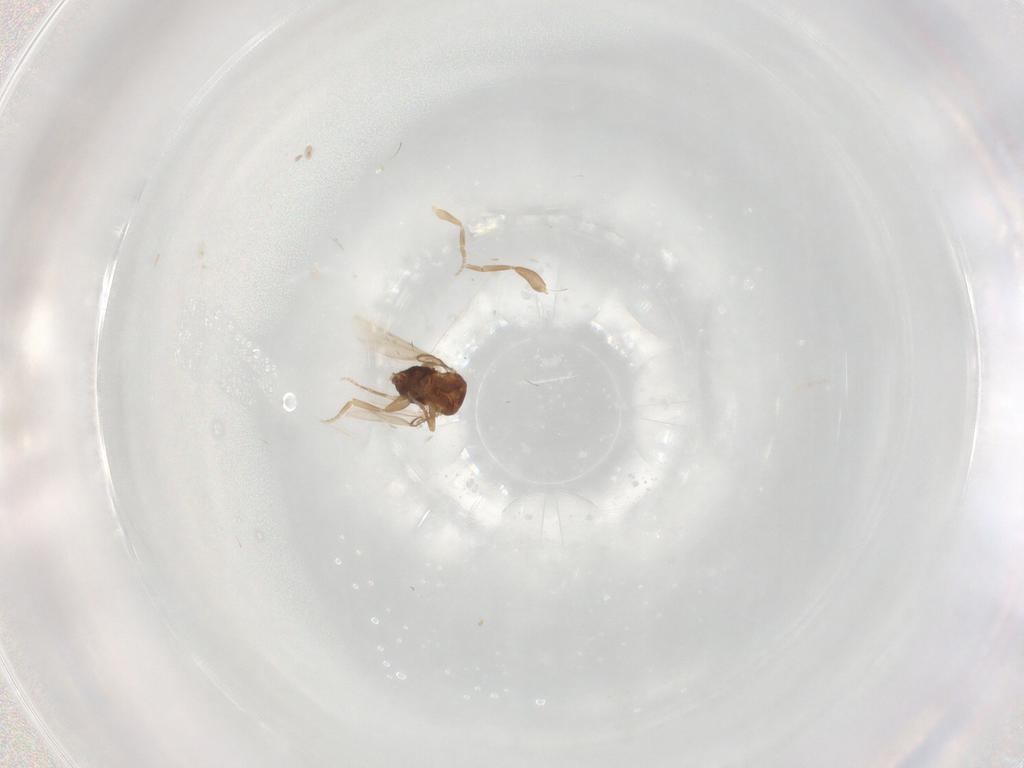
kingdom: Animalia
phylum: Arthropoda
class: Insecta
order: Diptera
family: Phoridae
